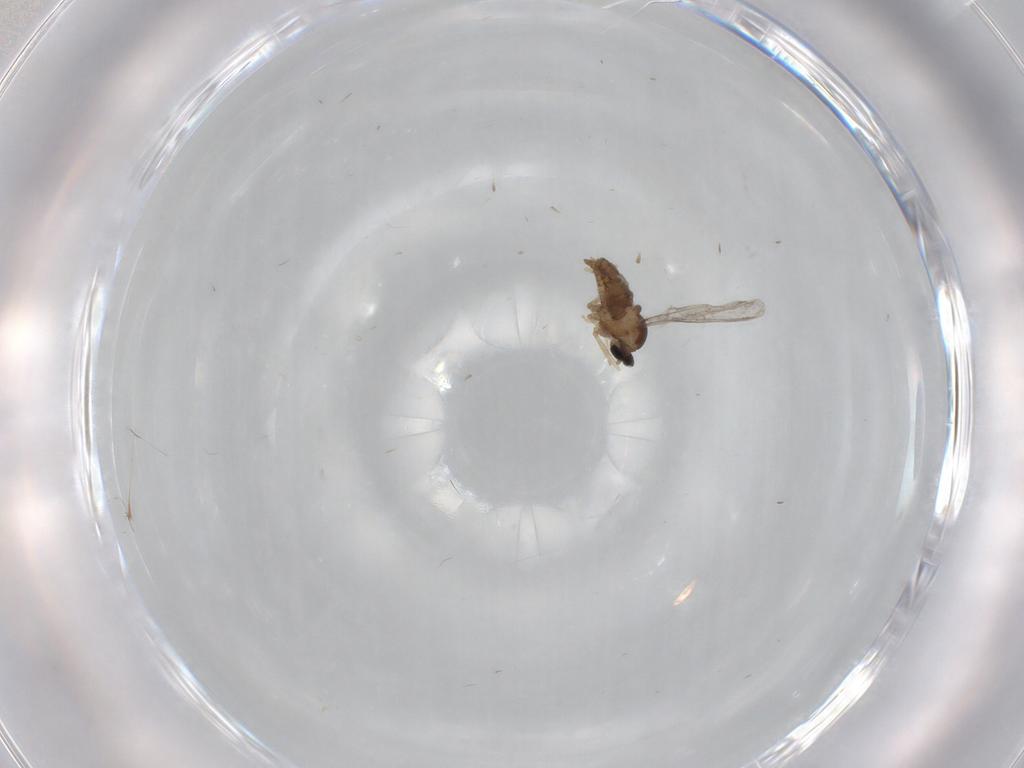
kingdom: Animalia
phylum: Arthropoda
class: Insecta
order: Diptera
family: Cecidomyiidae
